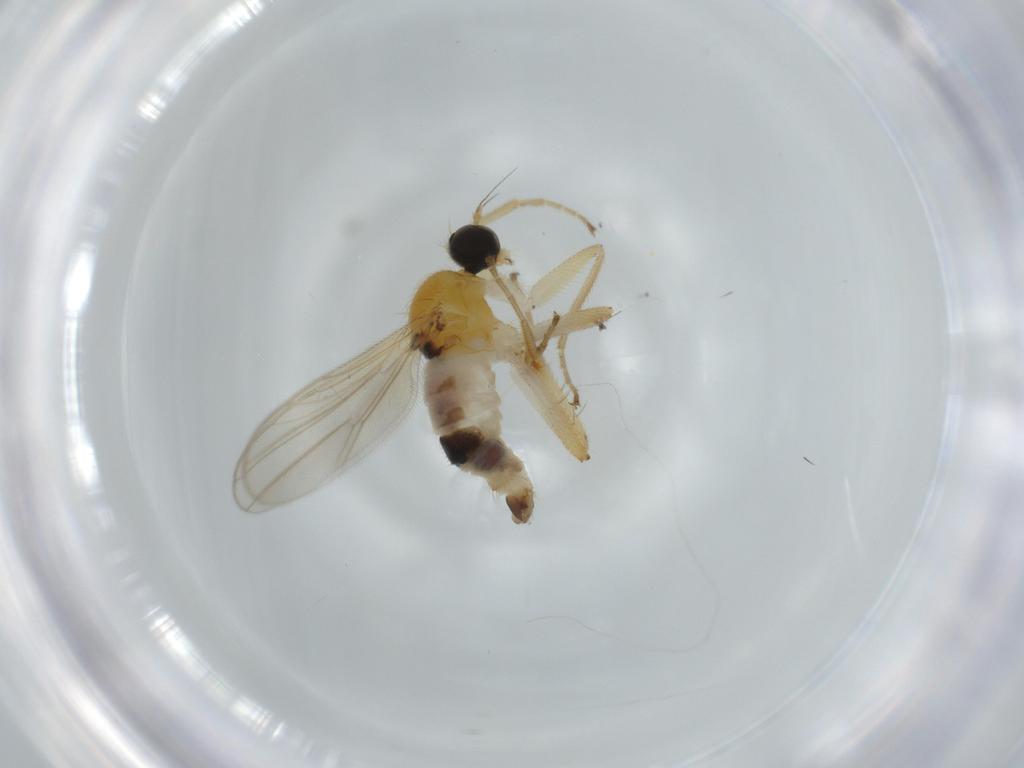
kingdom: Animalia
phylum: Arthropoda
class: Insecta
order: Diptera
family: Hybotidae
